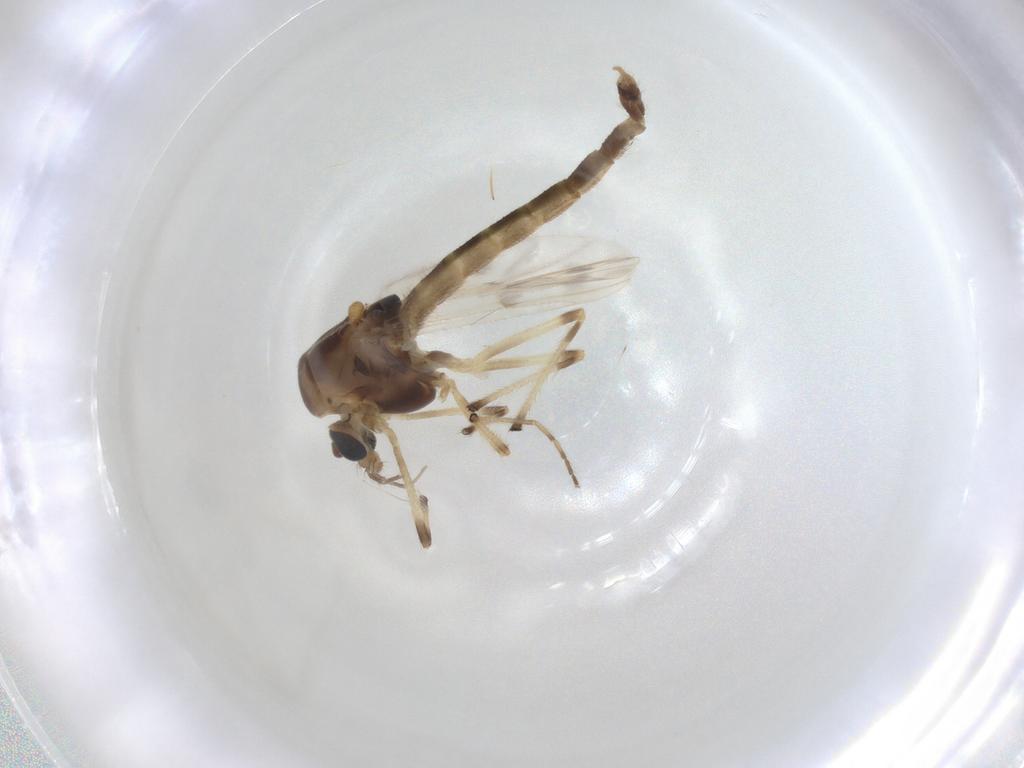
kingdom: Animalia
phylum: Arthropoda
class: Insecta
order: Diptera
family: Chironomidae
